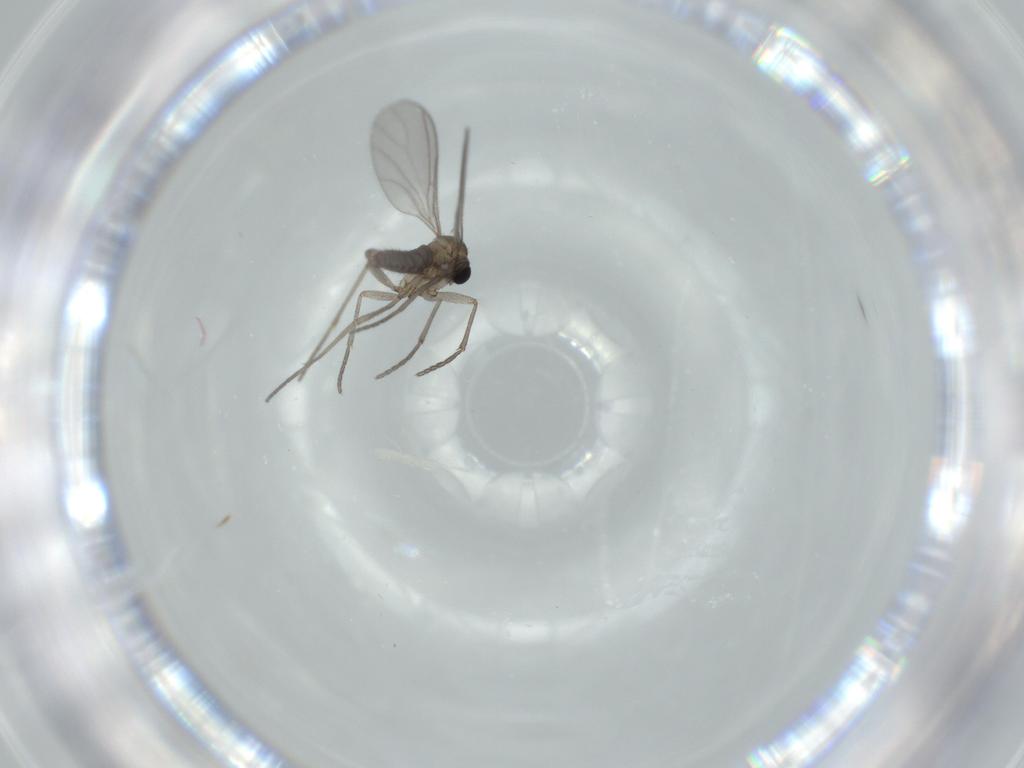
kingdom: Animalia
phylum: Arthropoda
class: Insecta
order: Diptera
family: Sciaridae
